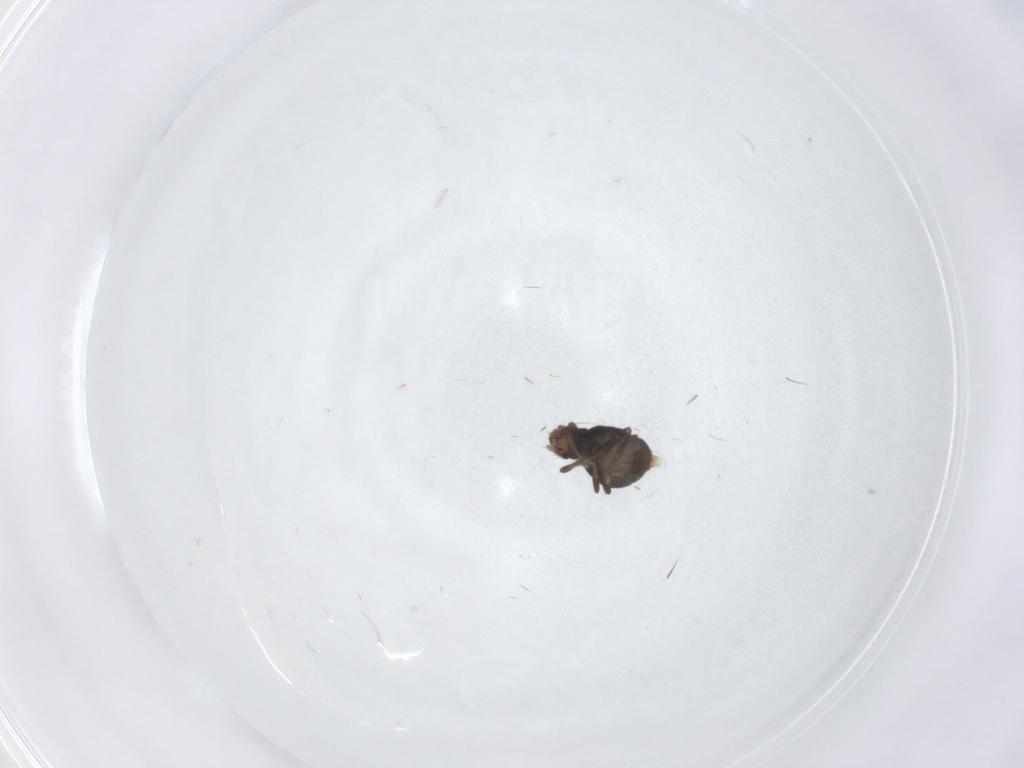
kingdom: Animalia
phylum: Arthropoda
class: Insecta
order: Diptera
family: Phoridae
